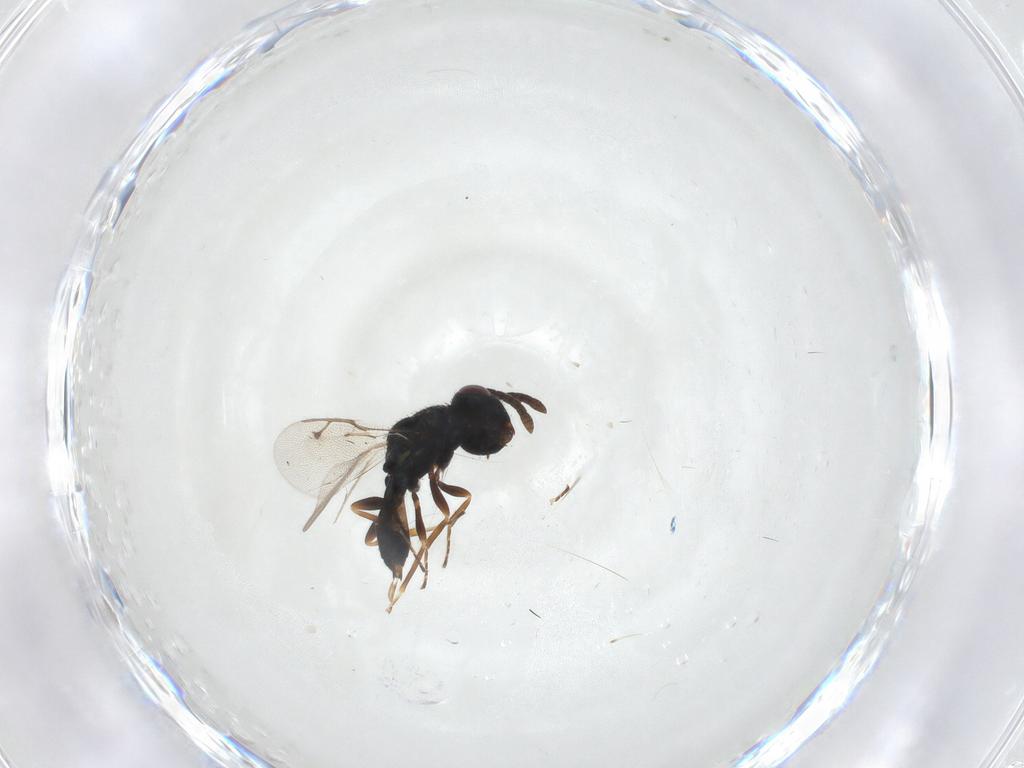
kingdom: Animalia
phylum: Arthropoda
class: Insecta
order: Hymenoptera
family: Pteromalidae
